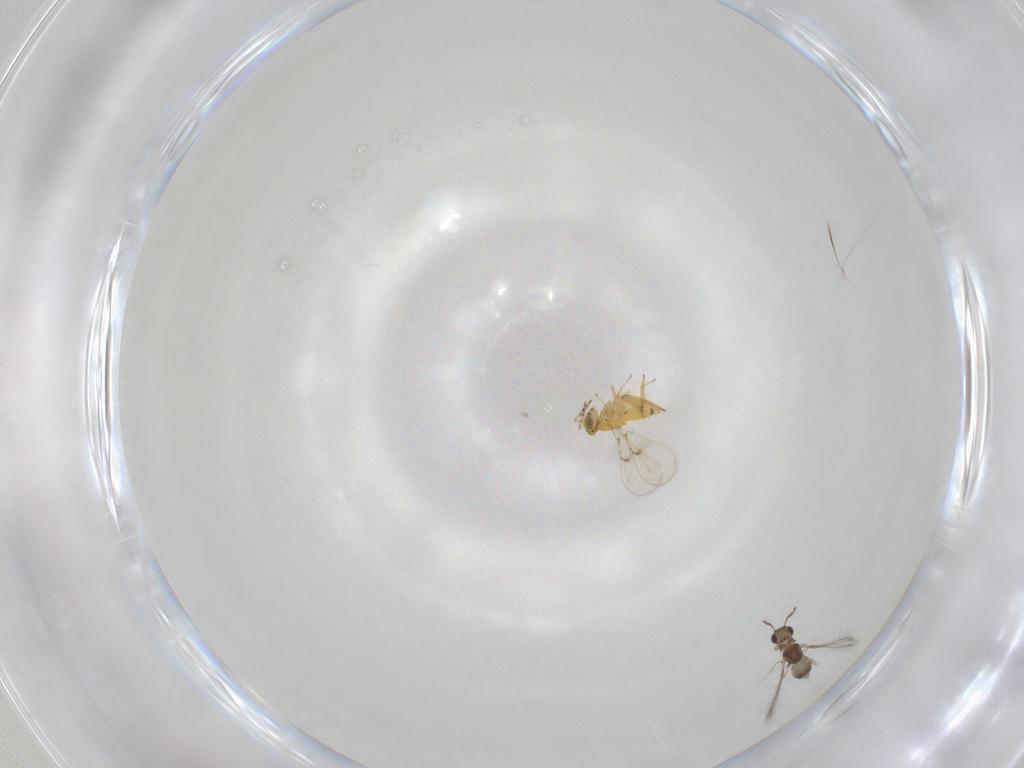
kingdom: Animalia
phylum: Arthropoda
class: Insecta
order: Hymenoptera
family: Mymaridae
